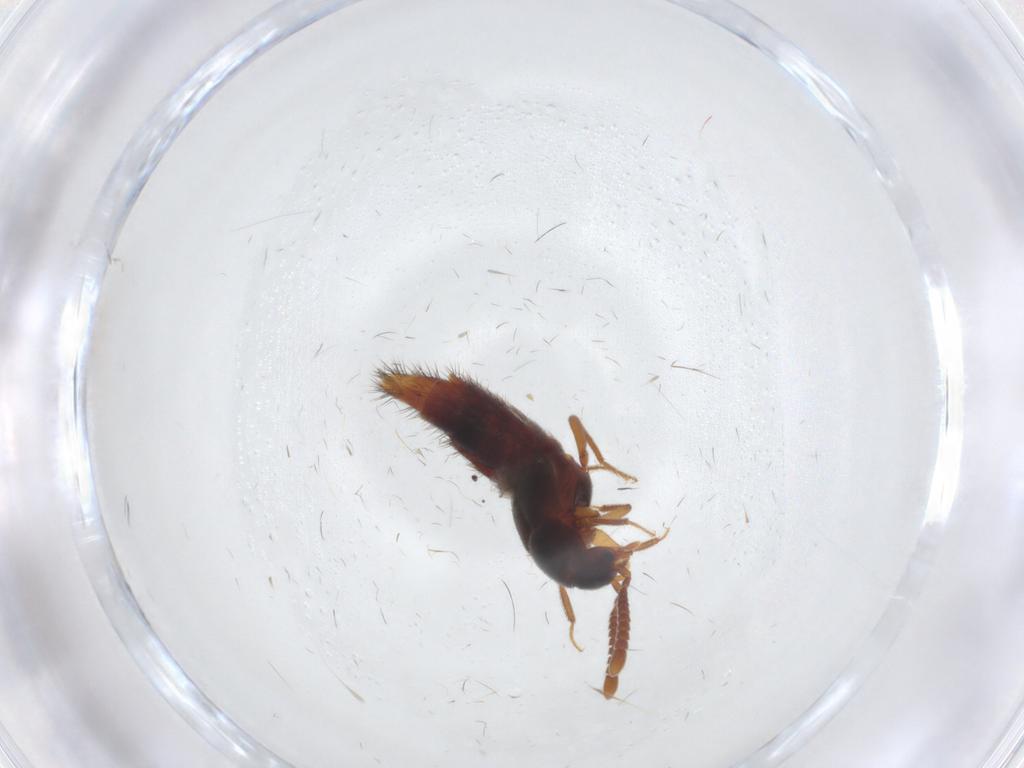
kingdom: Animalia
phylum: Arthropoda
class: Insecta
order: Coleoptera
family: Staphylinidae
